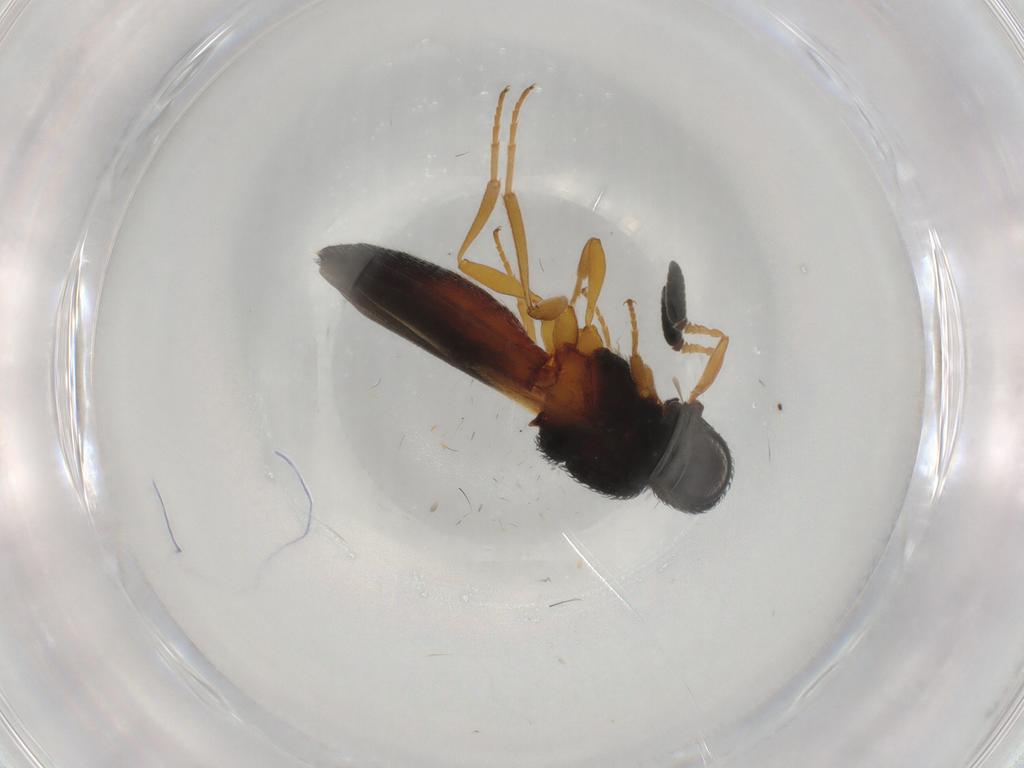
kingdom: Animalia
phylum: Arthropoda
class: Insecta
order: Hymenoptera
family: Scelionidae
